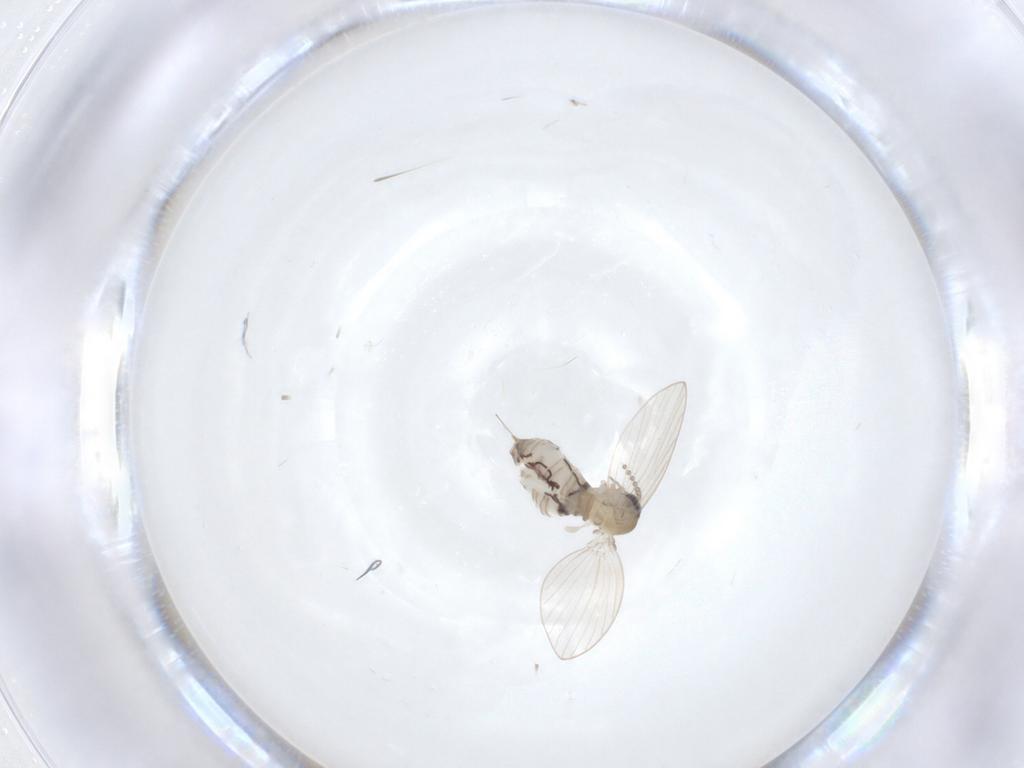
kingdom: Animalia
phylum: Arthropoda
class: Insecta
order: Diptera
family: Psychodidae
